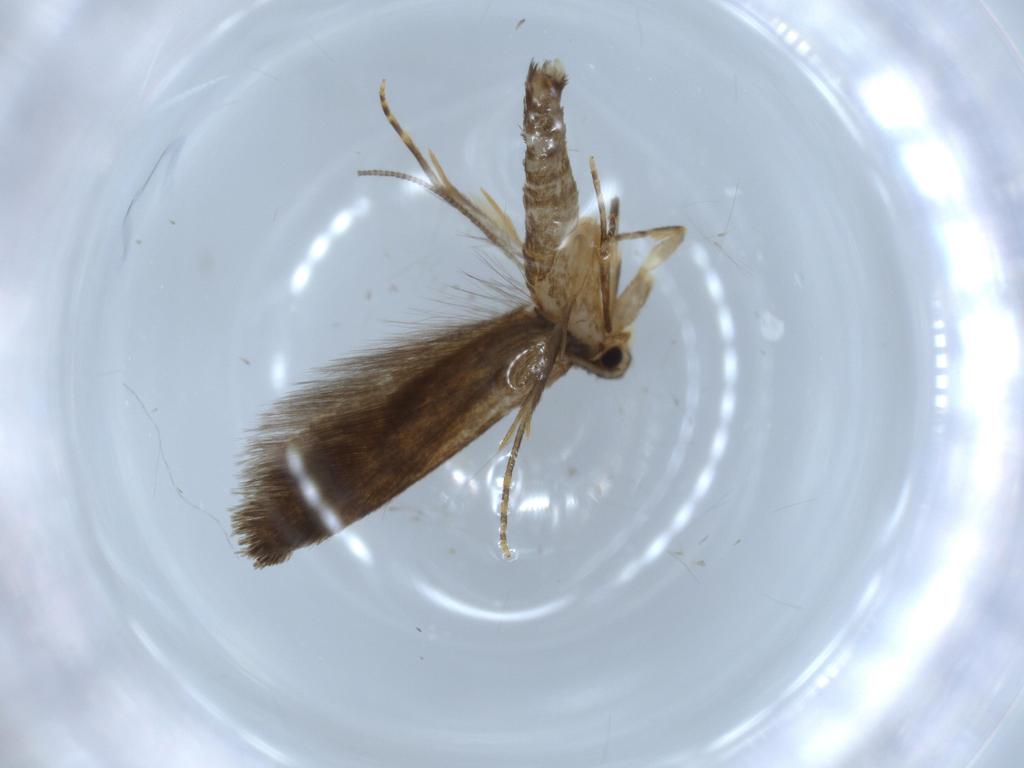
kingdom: Animalia
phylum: Arthropoda
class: Insecta
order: Lepidoptera
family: Tineidae
